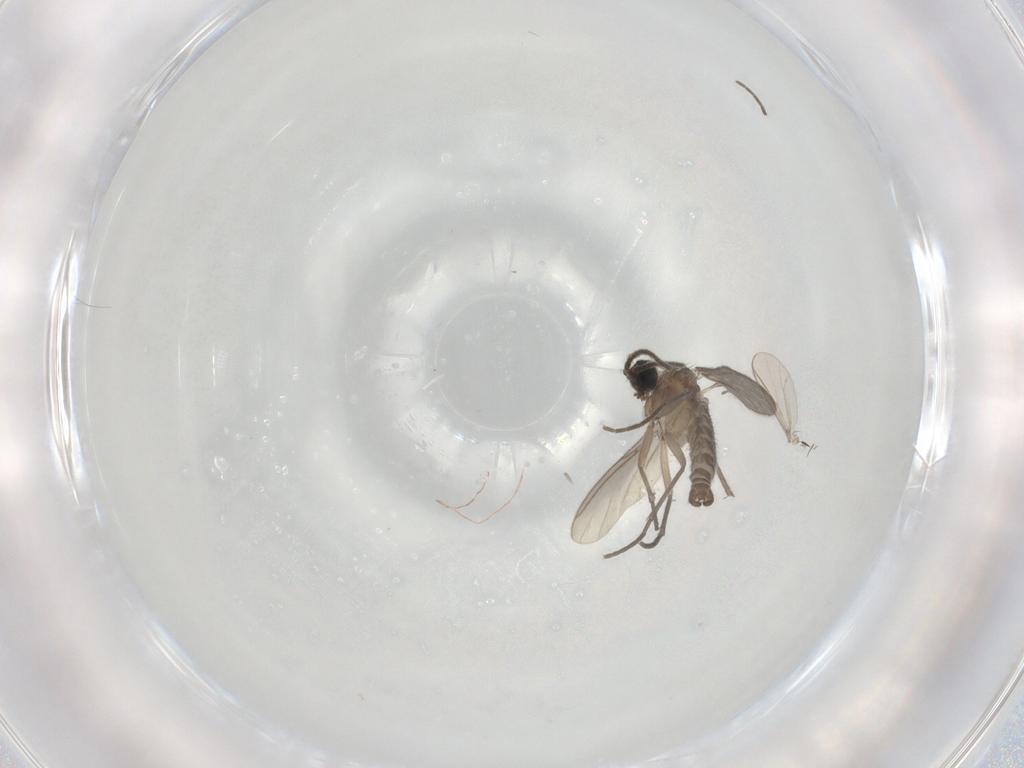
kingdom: Animalia
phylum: Arthropoda
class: Insecta
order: Diptera
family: Sciaridae
